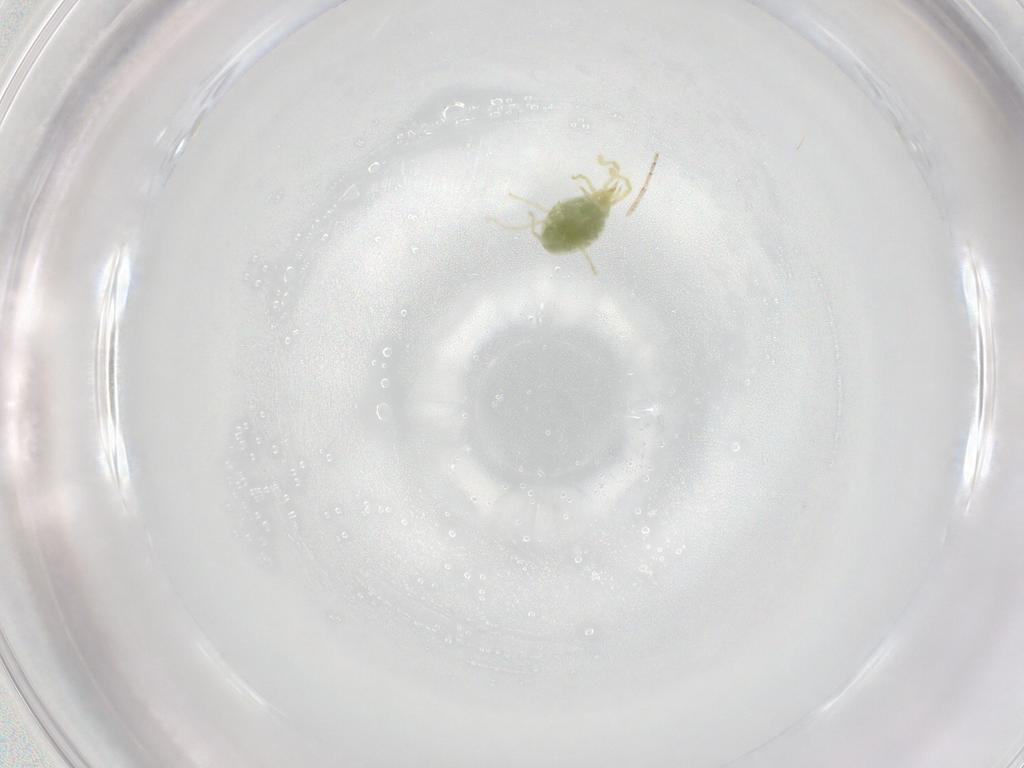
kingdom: Animalia
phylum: Arthropoda
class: Arachnida
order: Trombidiformes
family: Erythraeidae
